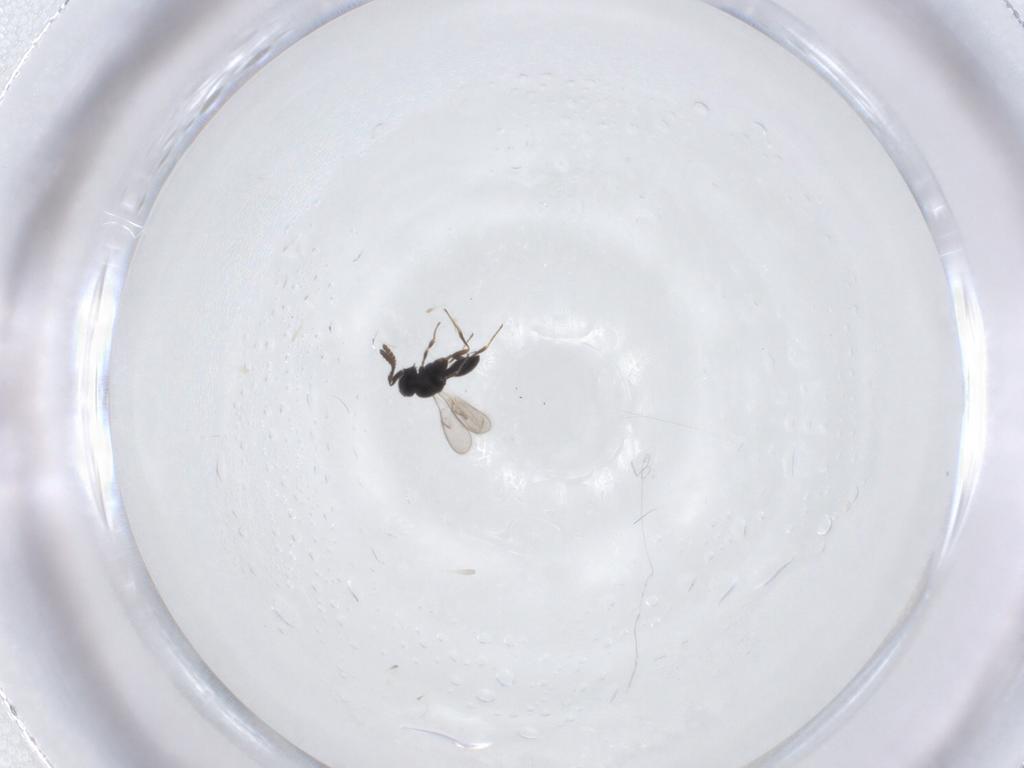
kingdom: Animalia
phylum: Arthropoda
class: Insecta
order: Hymenoptera
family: Scelionidae
